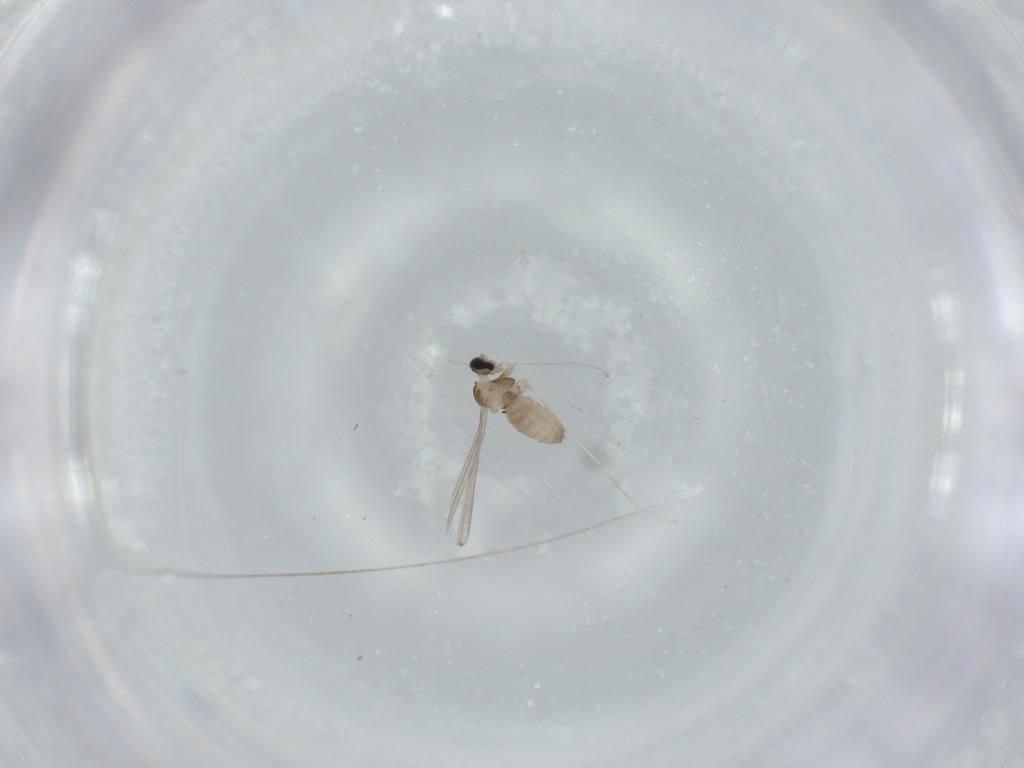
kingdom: Animalia
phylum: Arthropoda
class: Insecta
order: Diptera
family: Cecidomyiidae
